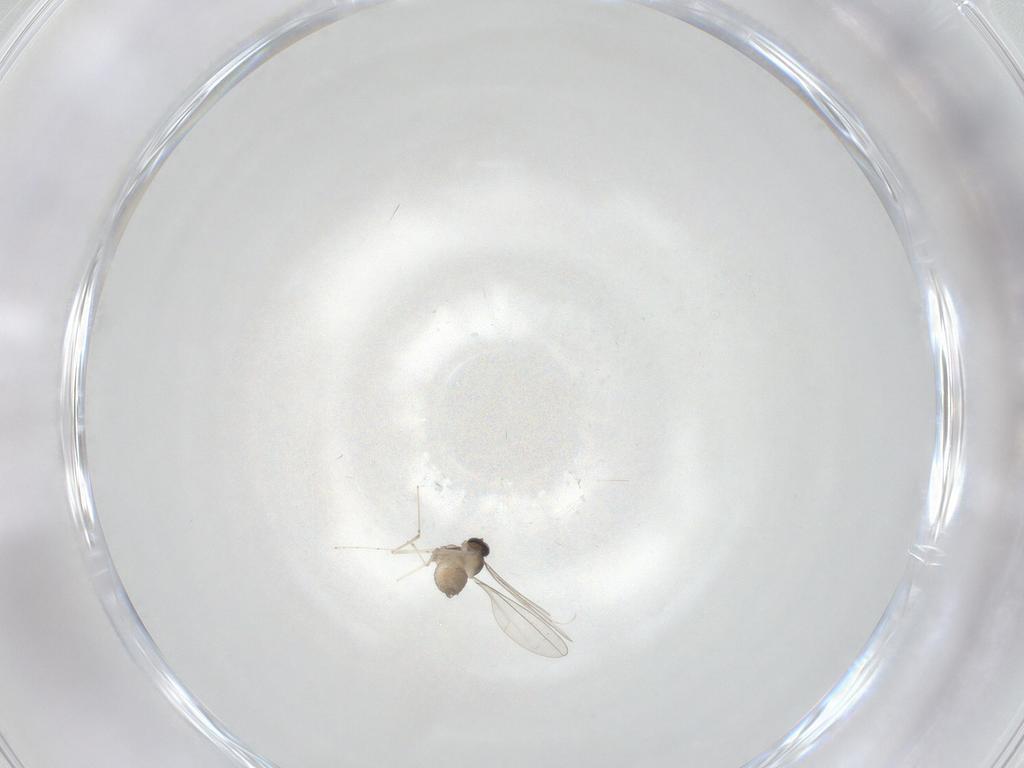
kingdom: Animalia
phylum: Arthropoda
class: Insecta
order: Diptera
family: Cecidomyiidae
